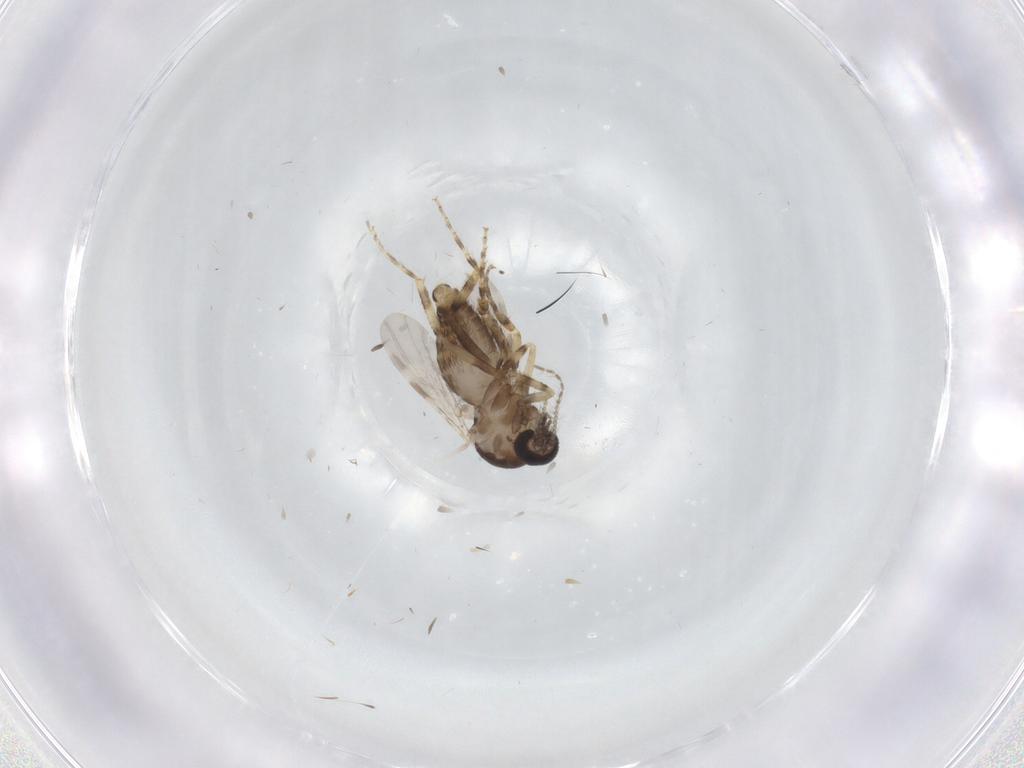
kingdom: Animalia
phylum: Arthropoda
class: Insecta
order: Diptera
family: Ceratopogonidae
